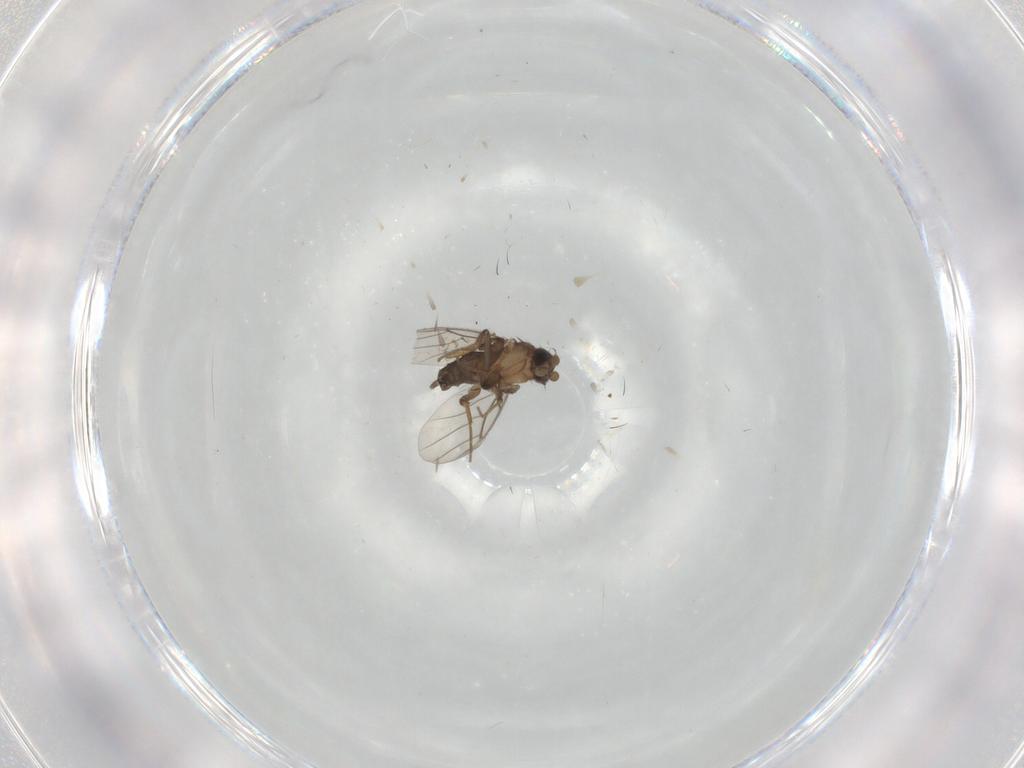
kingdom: Animalia
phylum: Arthropoda
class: Insecta
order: Diptera
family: Phoridae
